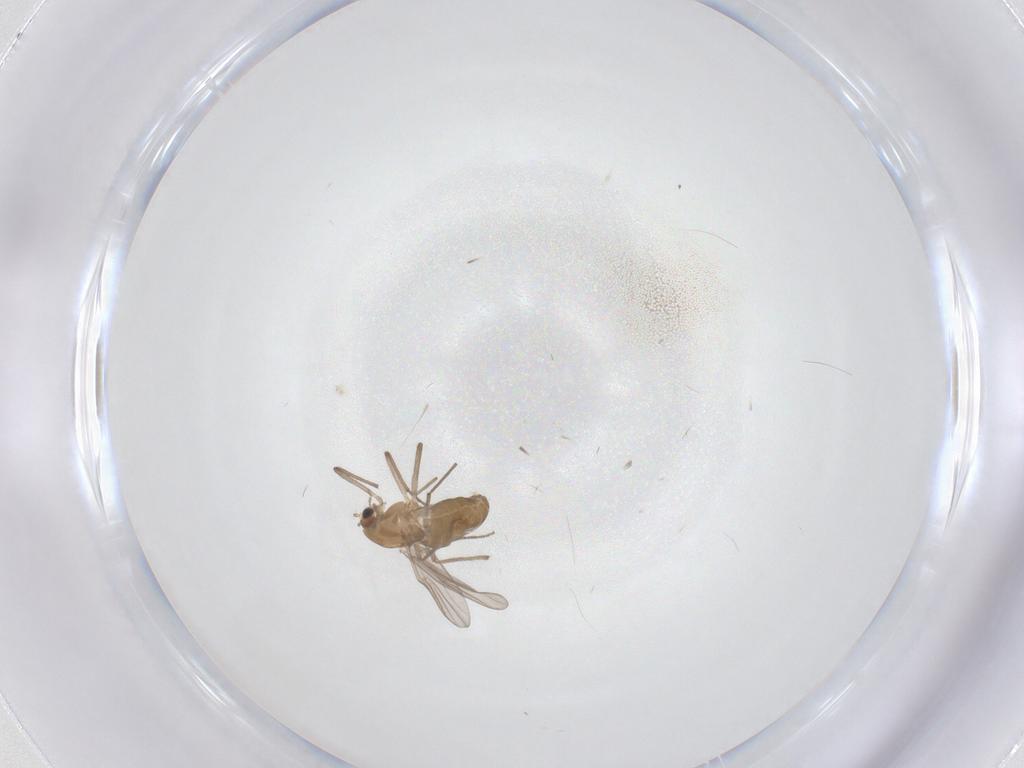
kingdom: Animalia
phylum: Arthropoda
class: Insecta
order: Diptera
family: Chironomidae
